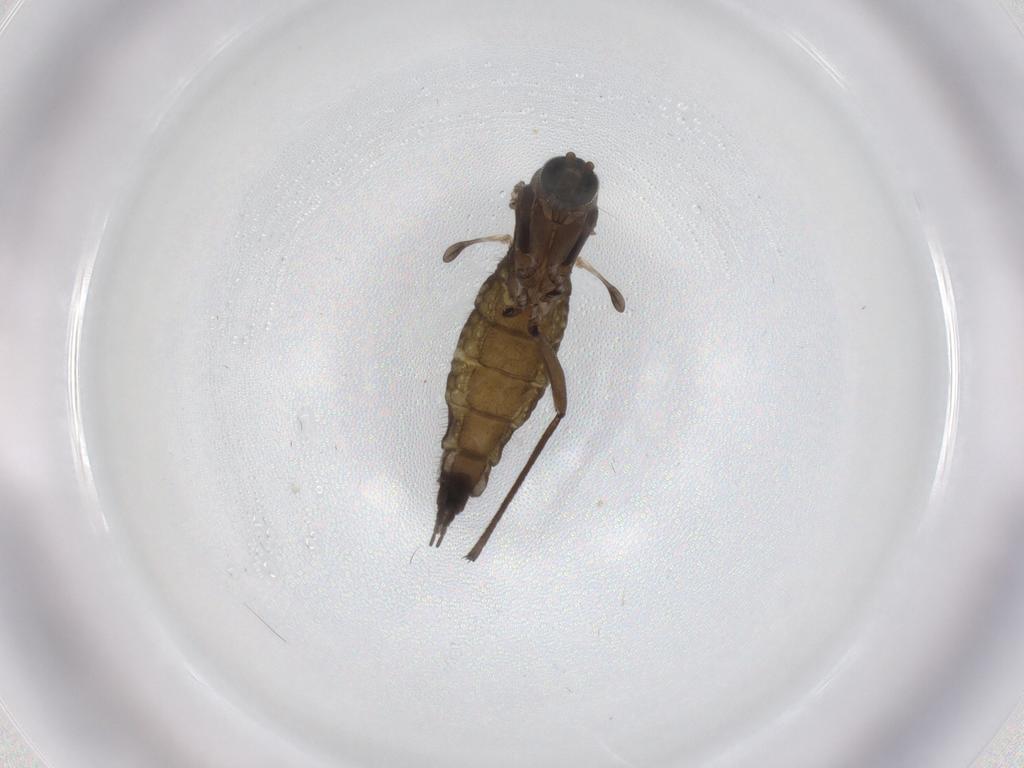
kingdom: Animalia
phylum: Arthropoda
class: Insecta
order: Diptera
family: Sciaridae
